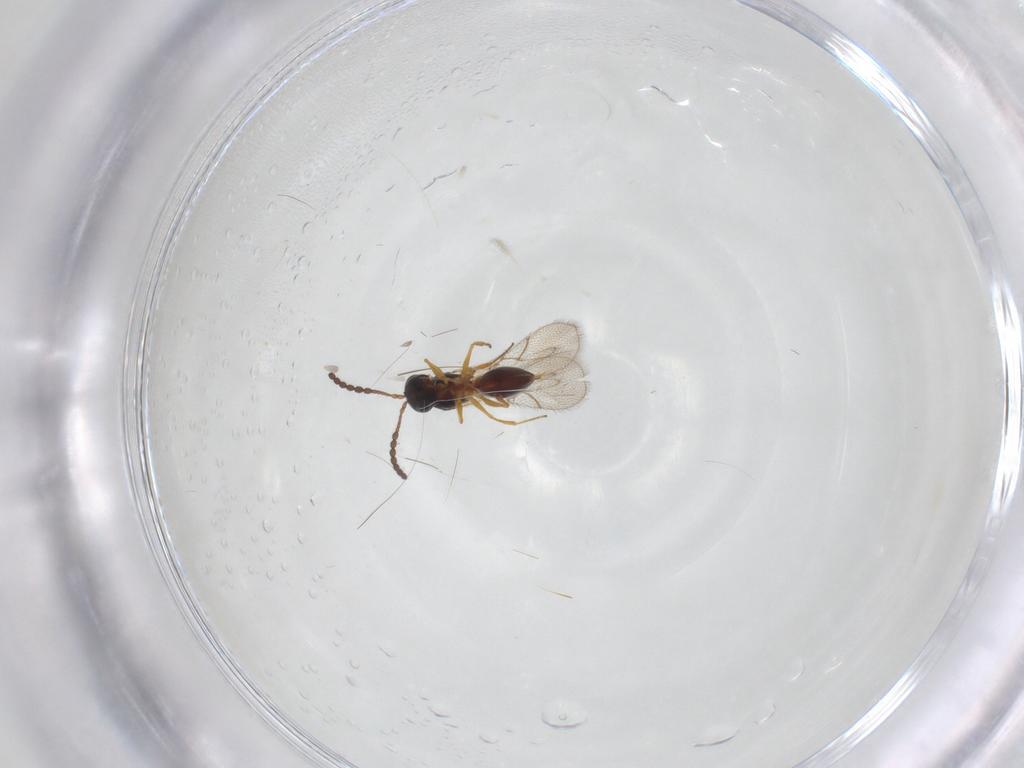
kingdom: Animalia
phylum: Arthropoda
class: Insecta
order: Hymenoptera
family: Figitidae
